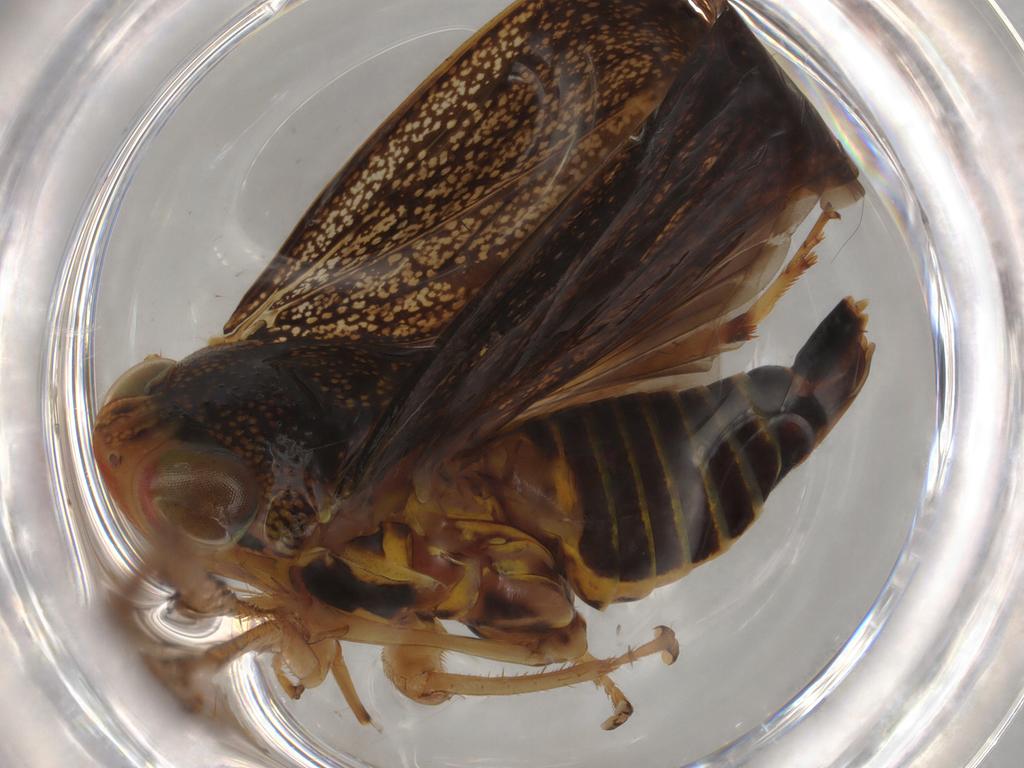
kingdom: Animalia
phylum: Arthropoda
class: Insecta
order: Hemiptera
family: Cicadellidae
